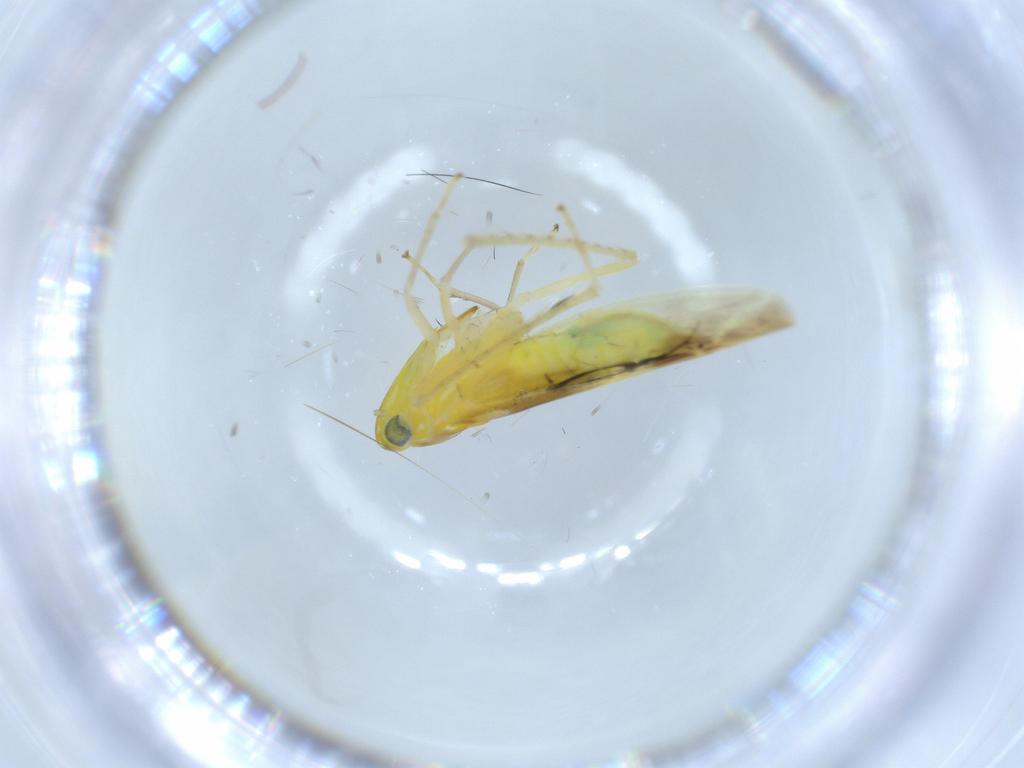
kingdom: Animalia
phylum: Arthropoda
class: Insecta
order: Hemiptera
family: Cicadellidae
